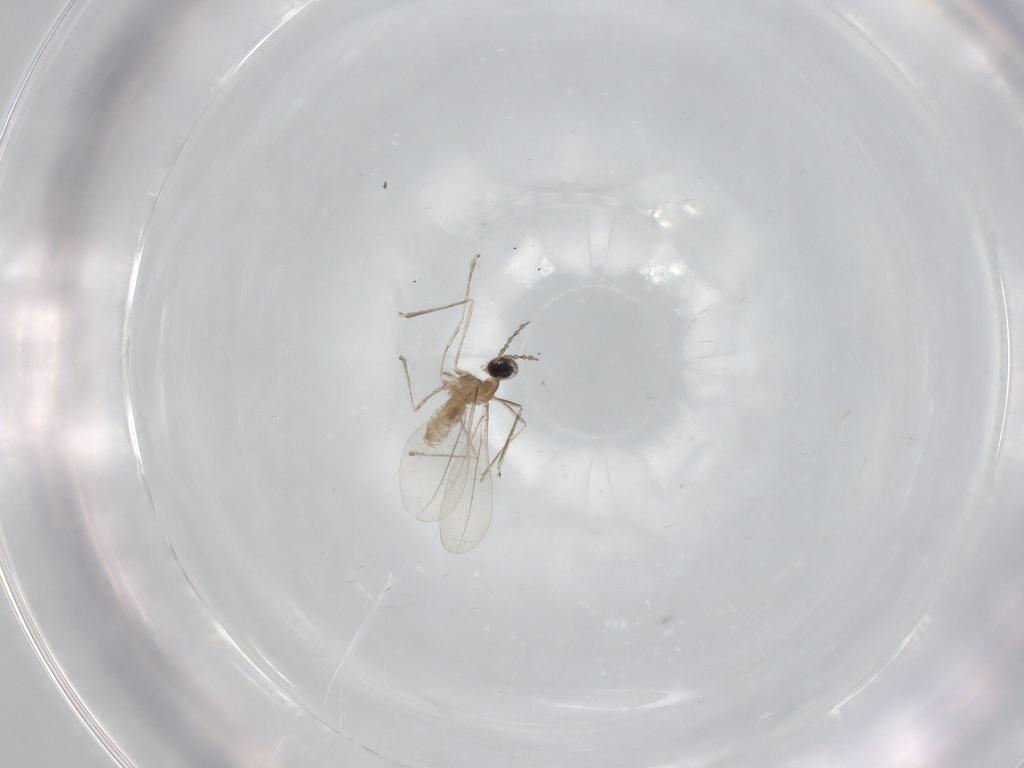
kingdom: Animalia
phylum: Arthropoda
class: Insecta
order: Diptera
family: Cecidomyiidae
